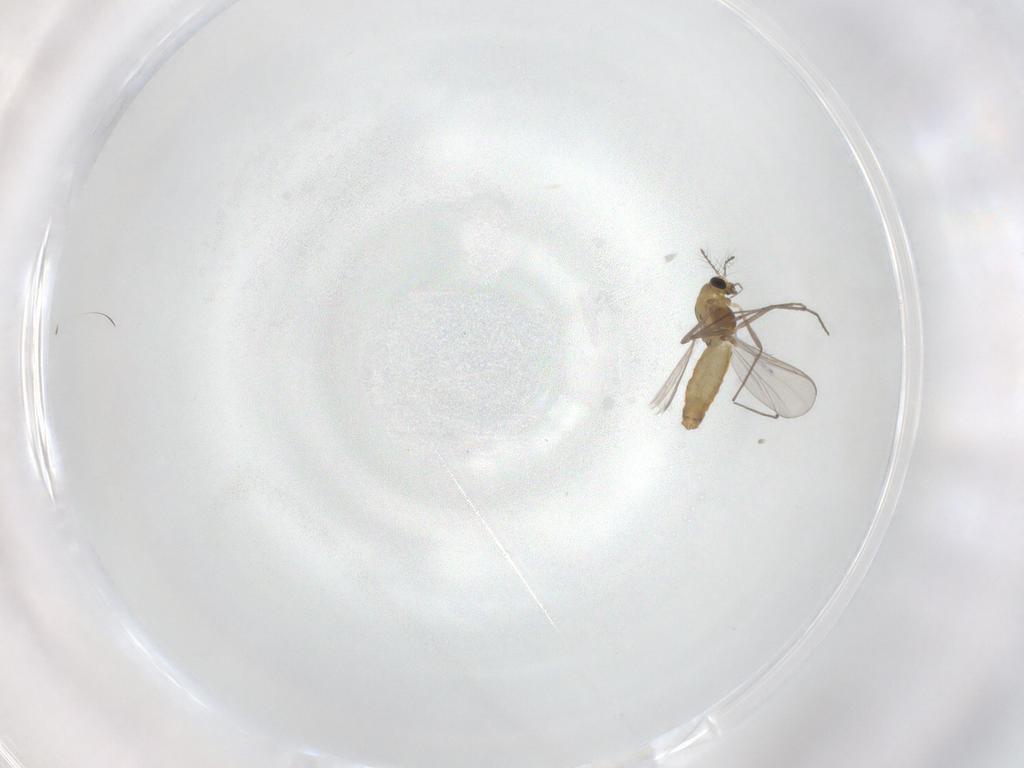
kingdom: Animalia
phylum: Arthropoda
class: Insecta
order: Diptera
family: Chironomidae
